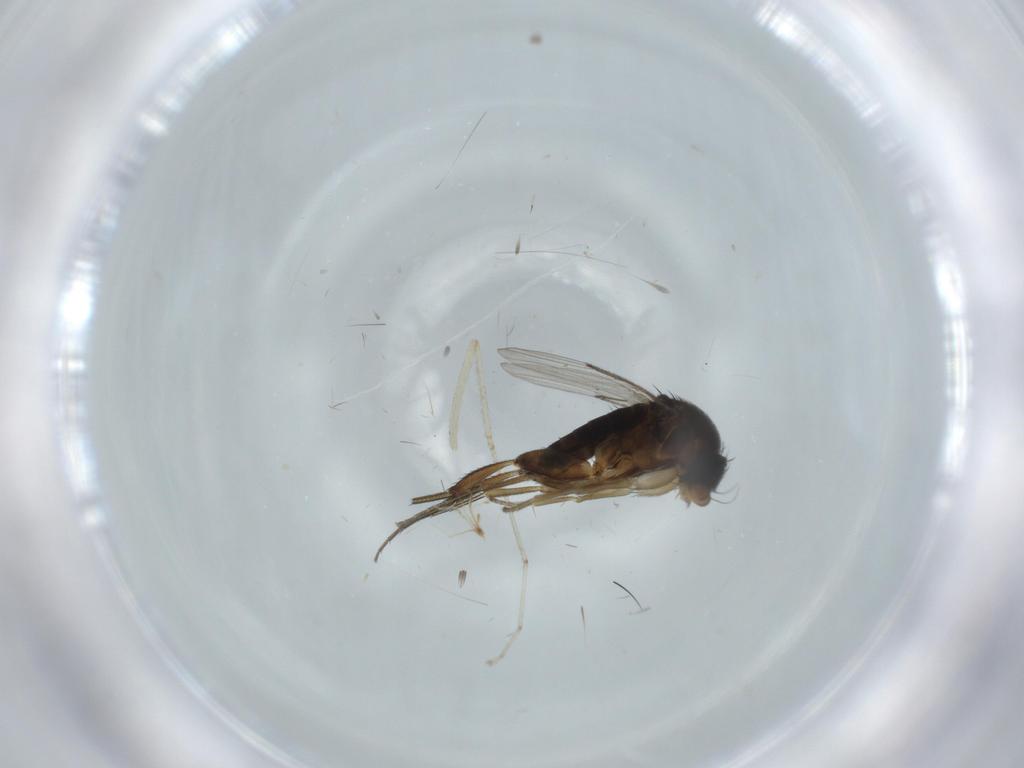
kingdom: Animalia
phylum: Arthropoda
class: Insecta
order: Diptera
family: Phoridae
